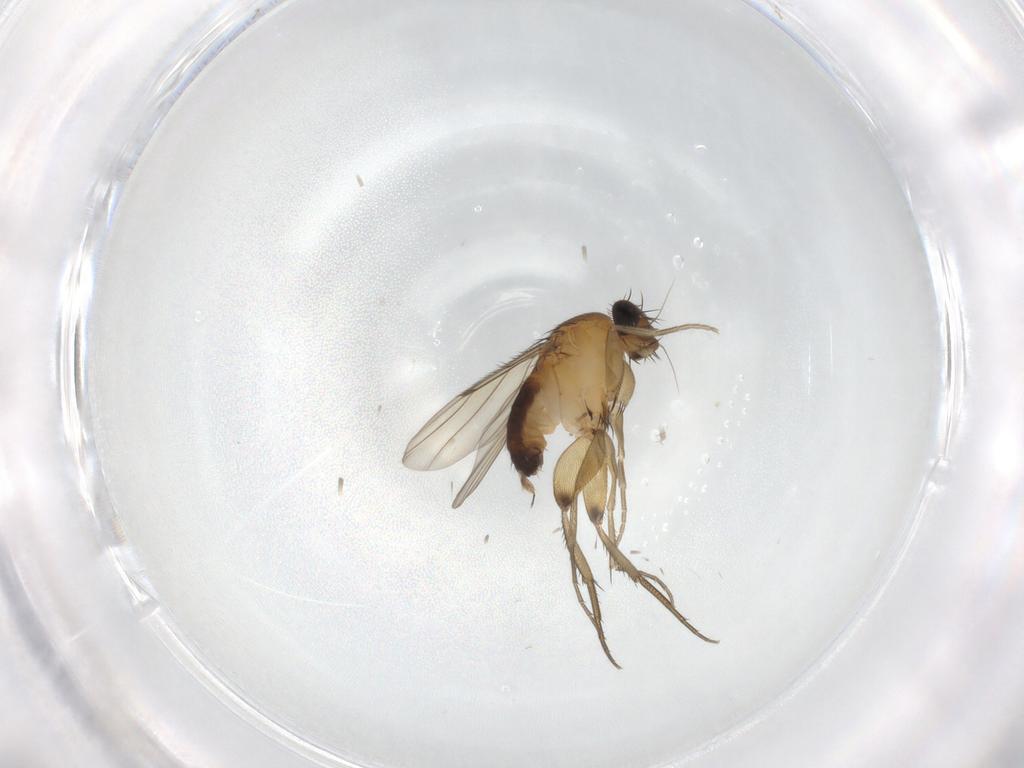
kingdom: Animalia
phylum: Arthropoda
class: Insecta
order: Diptera
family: Phoridae
